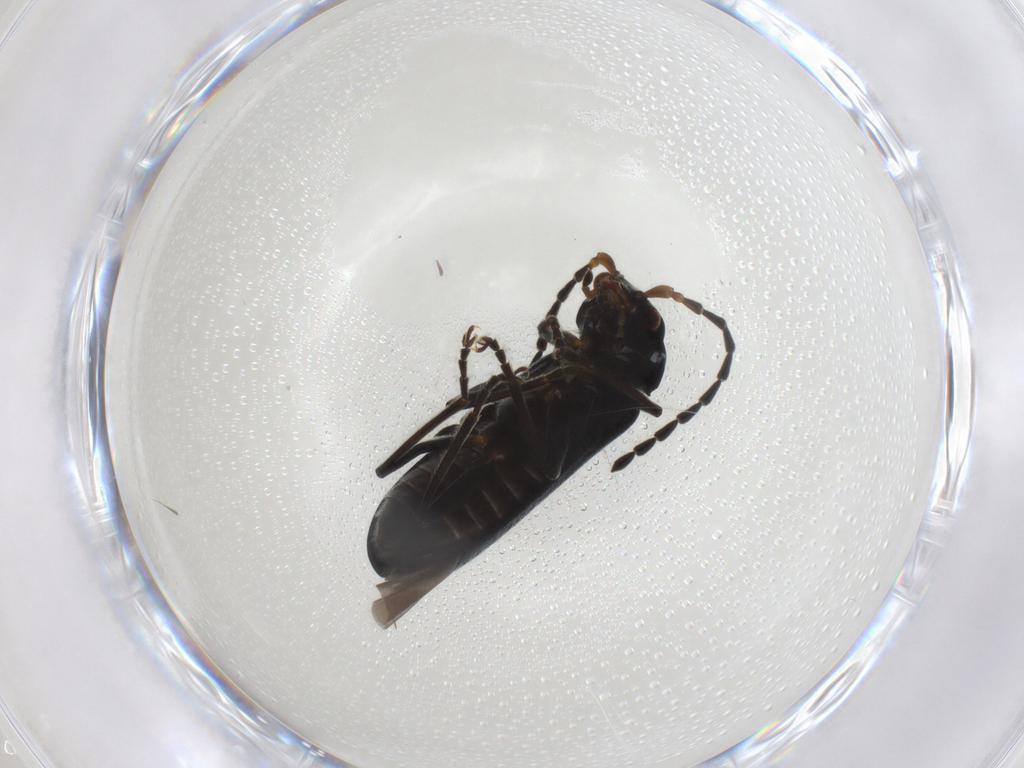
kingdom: Animalia
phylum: Arthropoda
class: Insecta
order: Coleoptera
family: Cantharidae
